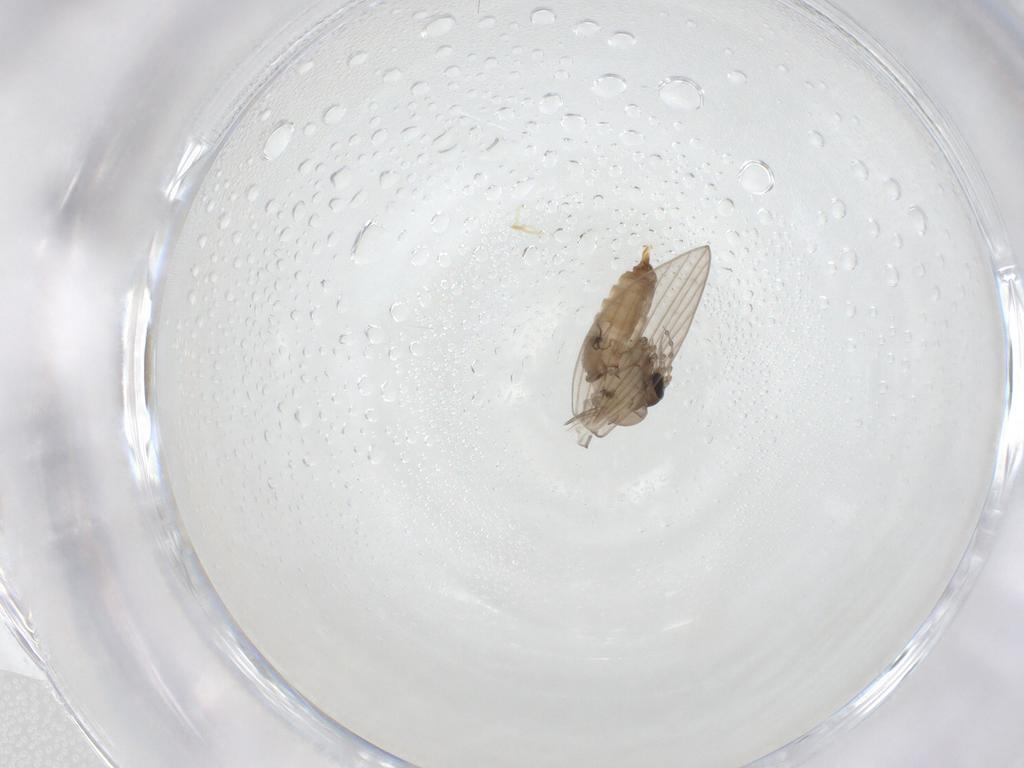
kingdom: Animalia
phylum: Arthropoda
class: Insecta
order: Diptera
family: Psychodidae
